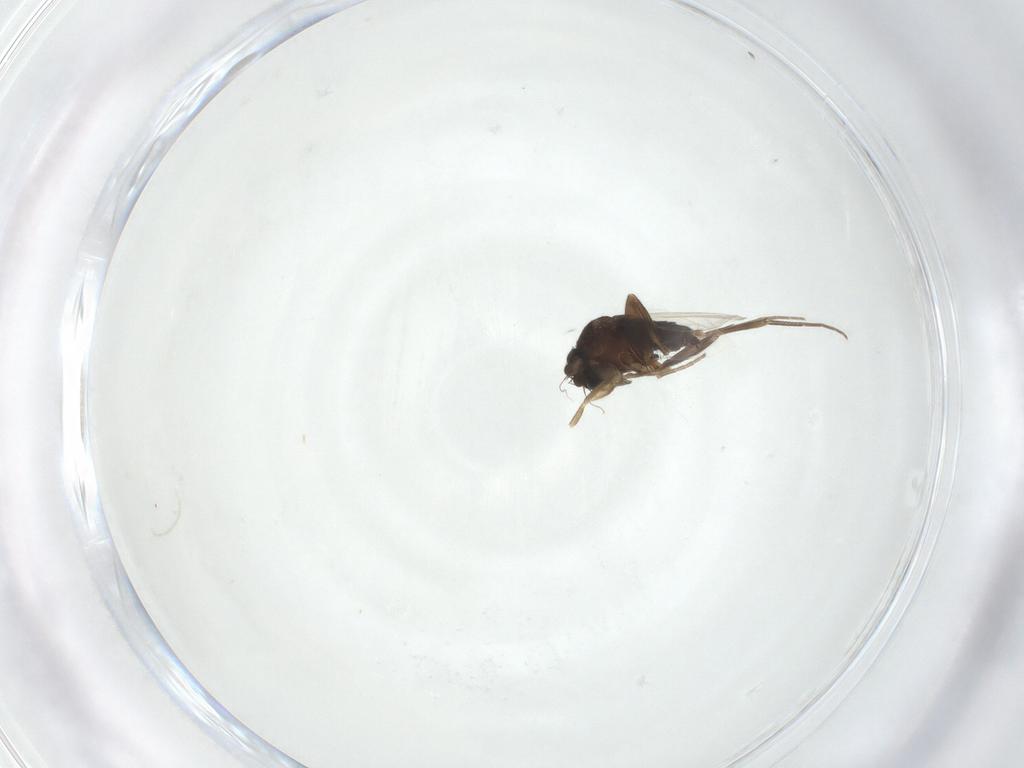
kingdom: Animalia
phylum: Arthropoda
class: Insecta
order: Diptera
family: Phoridae
